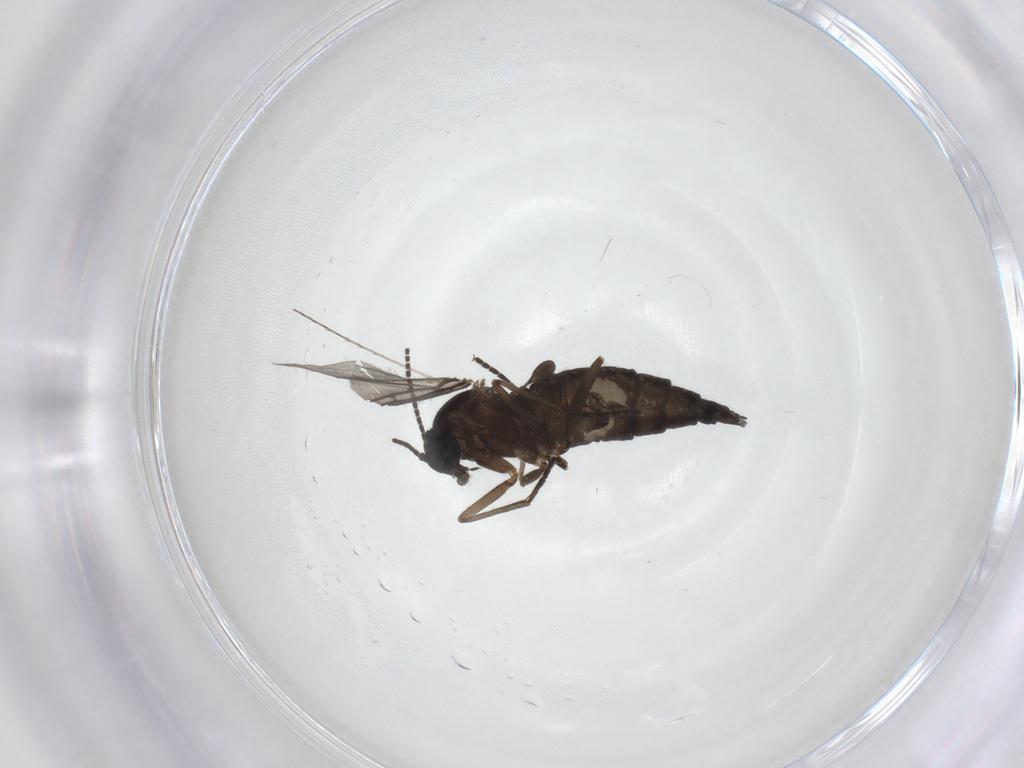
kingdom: Animalia
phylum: Arthropoda
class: Insecta
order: Diptera
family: Sciaridae
